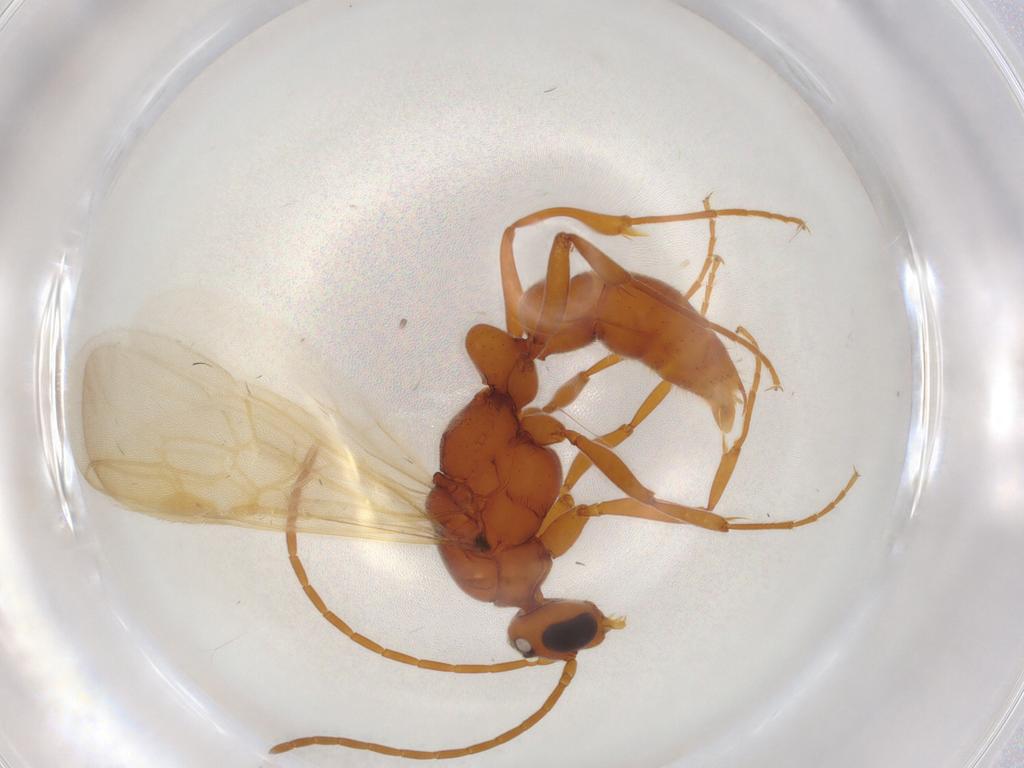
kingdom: Animalia
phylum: Arthropoda
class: Insecta
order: Hymenoptera
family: Formicidae
